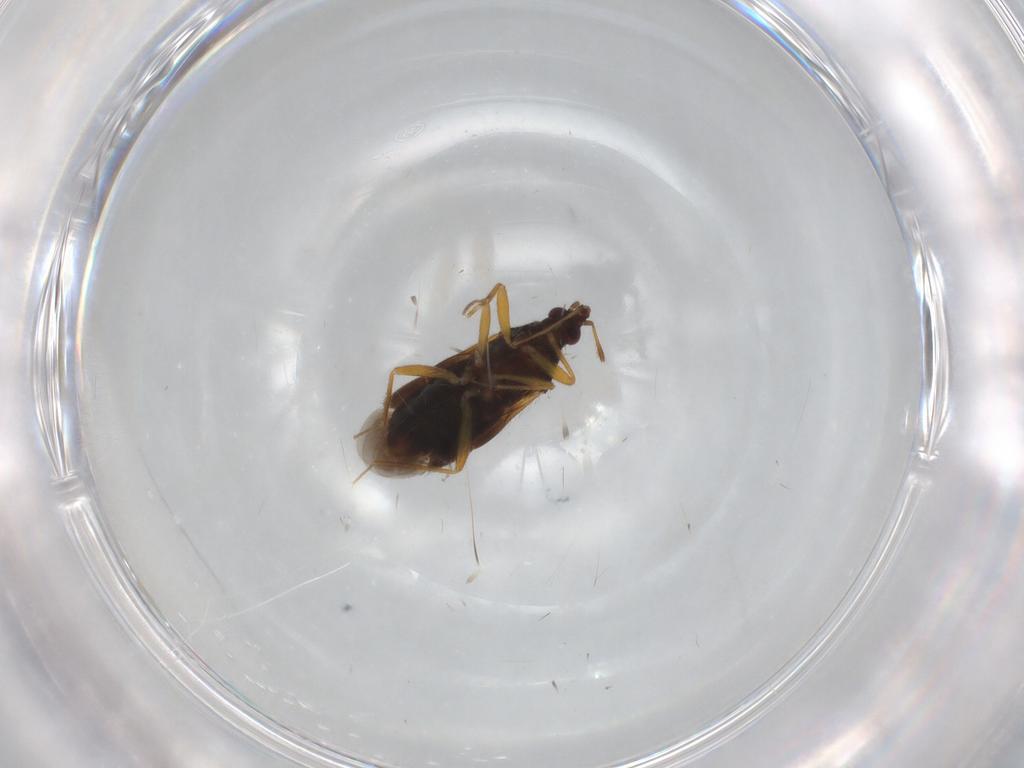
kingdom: Animalia
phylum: Arthropoda
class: Insecta
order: Hemiptera
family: Lasiochilidae
